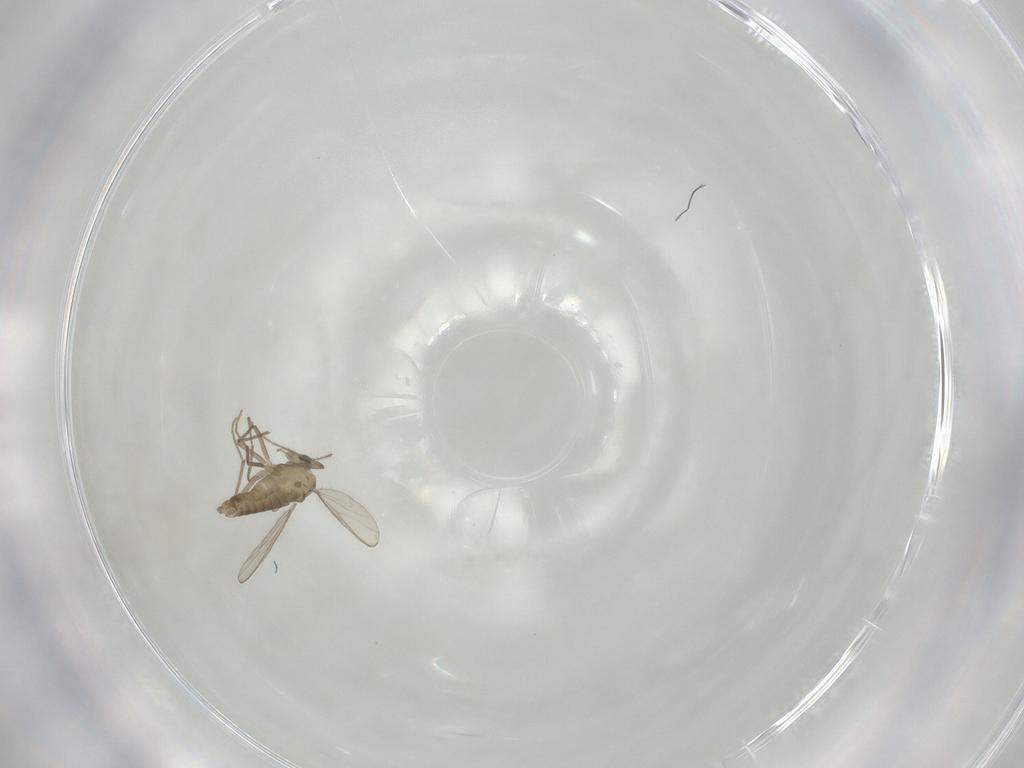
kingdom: Animalia
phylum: Arthropoda
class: Insecta
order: Diptera
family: Chironomidae
